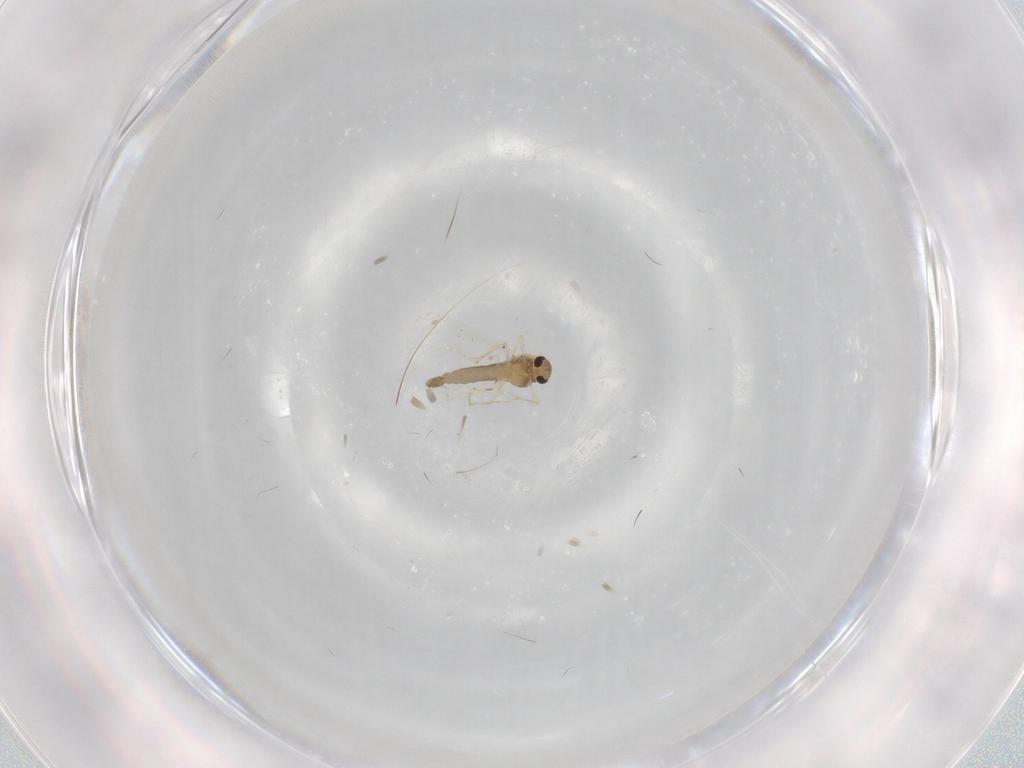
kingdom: Animalia
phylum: Arthropoda
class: Insecta
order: Diptera
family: Chironomidae
